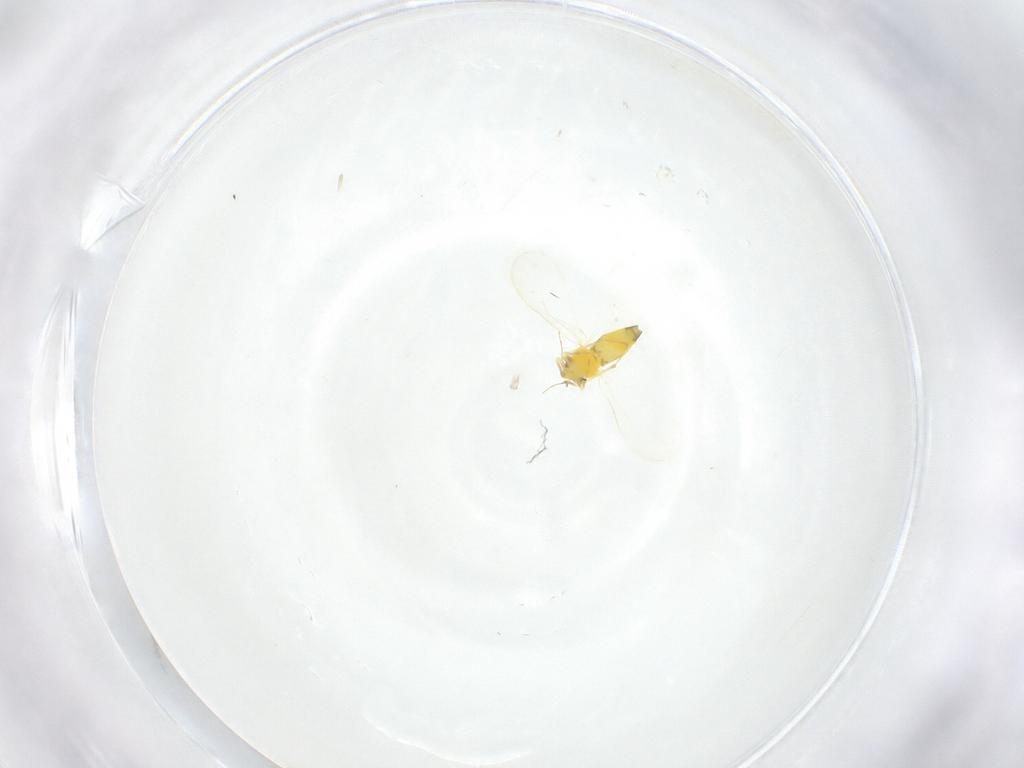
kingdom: Animalia
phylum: Arthropoda
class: Insecta
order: Hemiptera
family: Aleyrodidae
